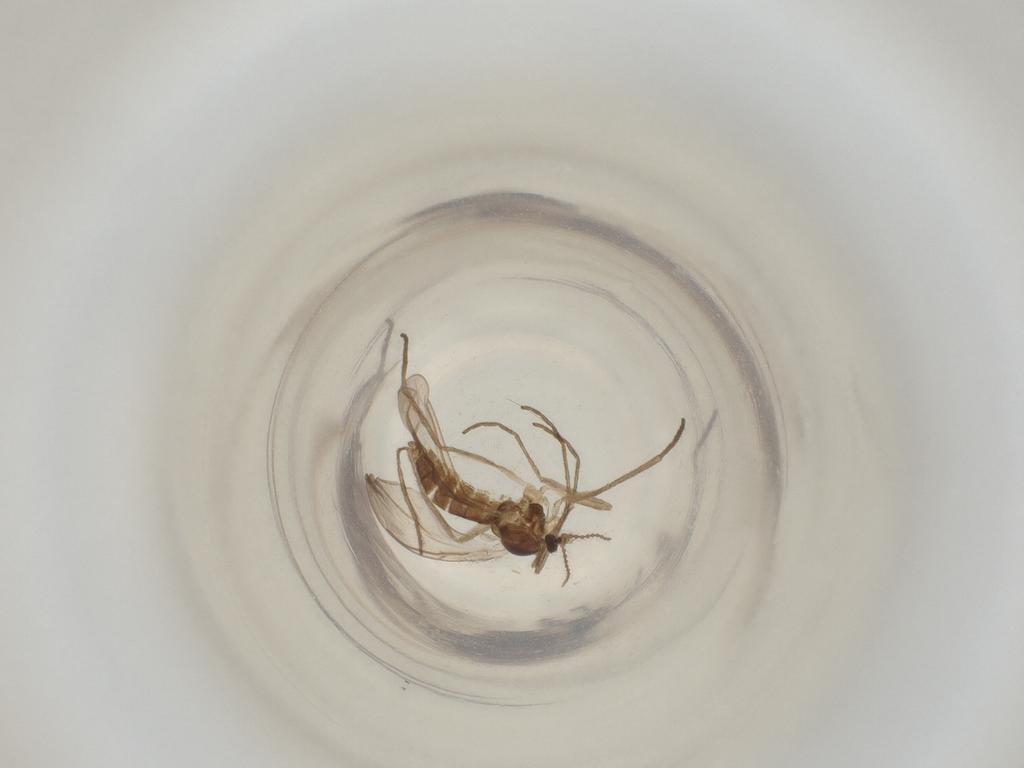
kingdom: Animalia
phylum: Arthropoda
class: Insecta
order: Diptera
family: Cecidomyiidae
